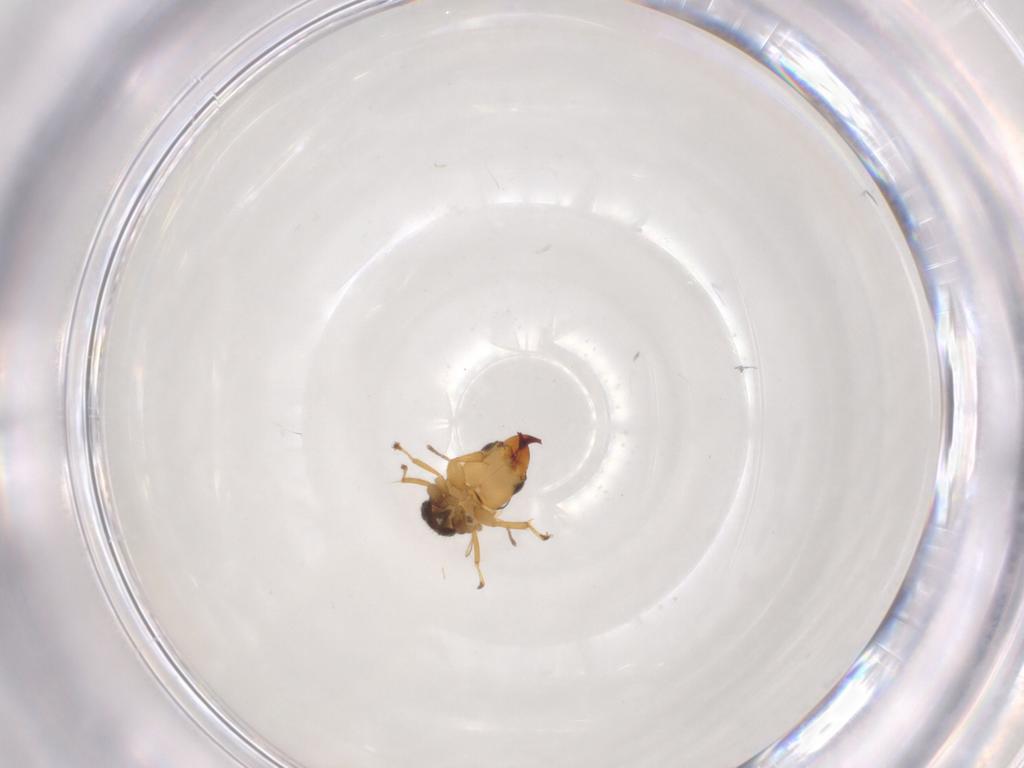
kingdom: Animalia
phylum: Arthropoda
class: Insecta
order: Hymenoptera
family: Pteromalidae
